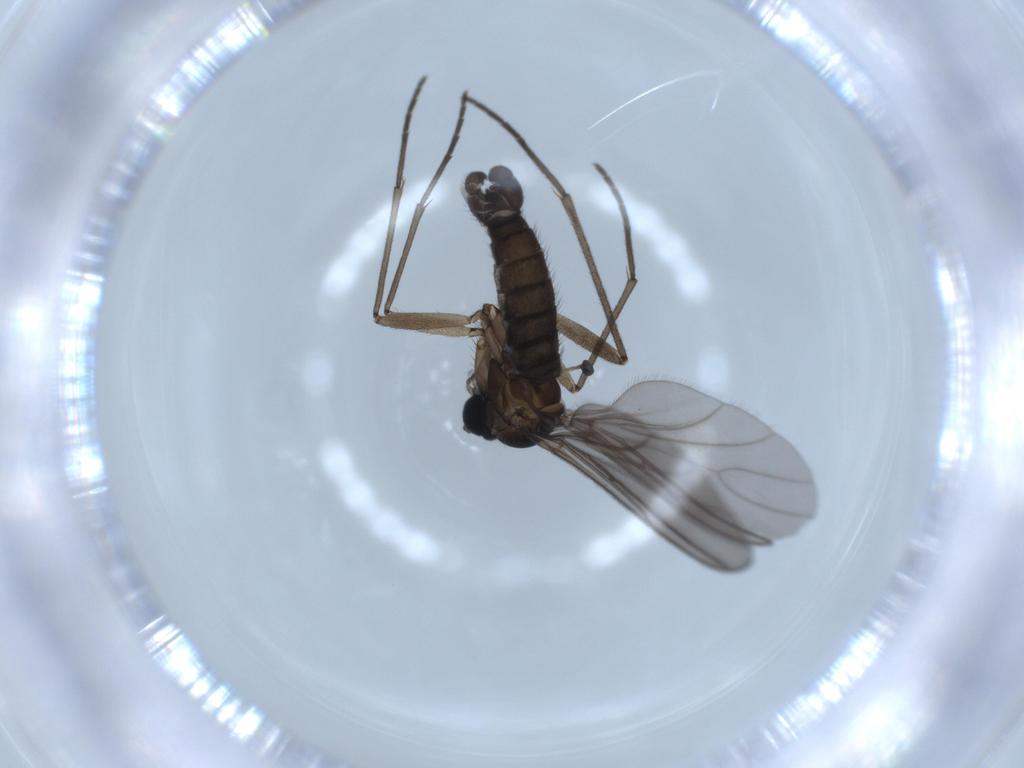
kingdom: Animalia
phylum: Arthropoda
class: Insecta
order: Diptera
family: Sciaridae
